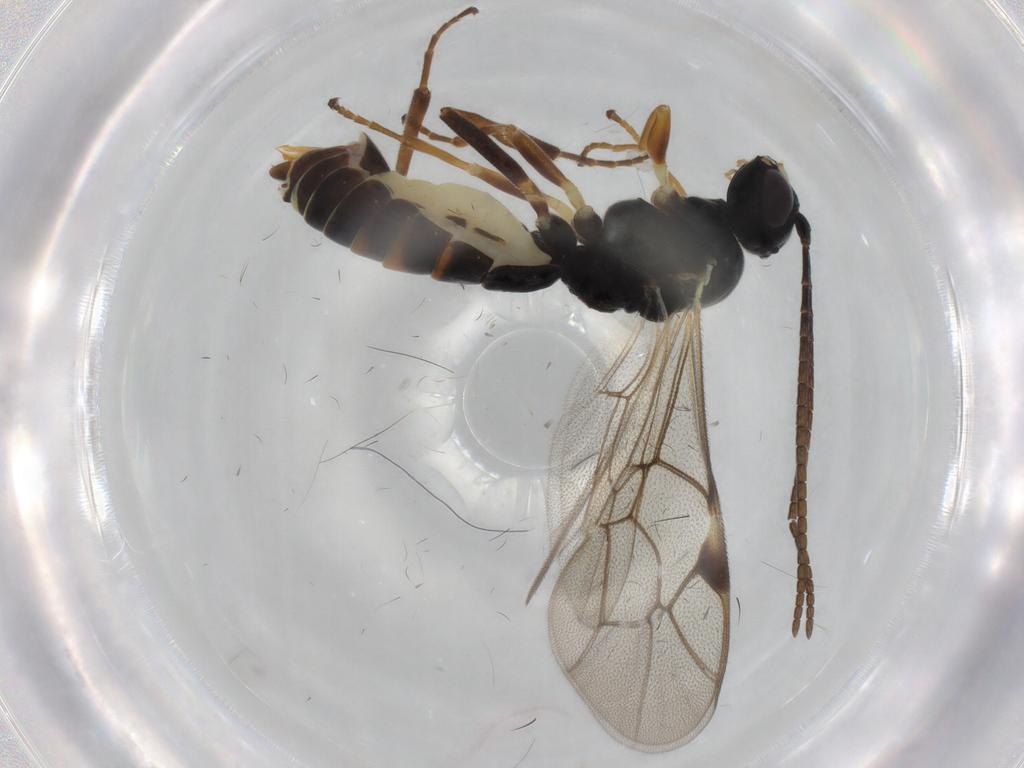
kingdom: Animalia
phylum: Arthropoda
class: Insecta
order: Hymenoptera
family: Ichneumonidae
